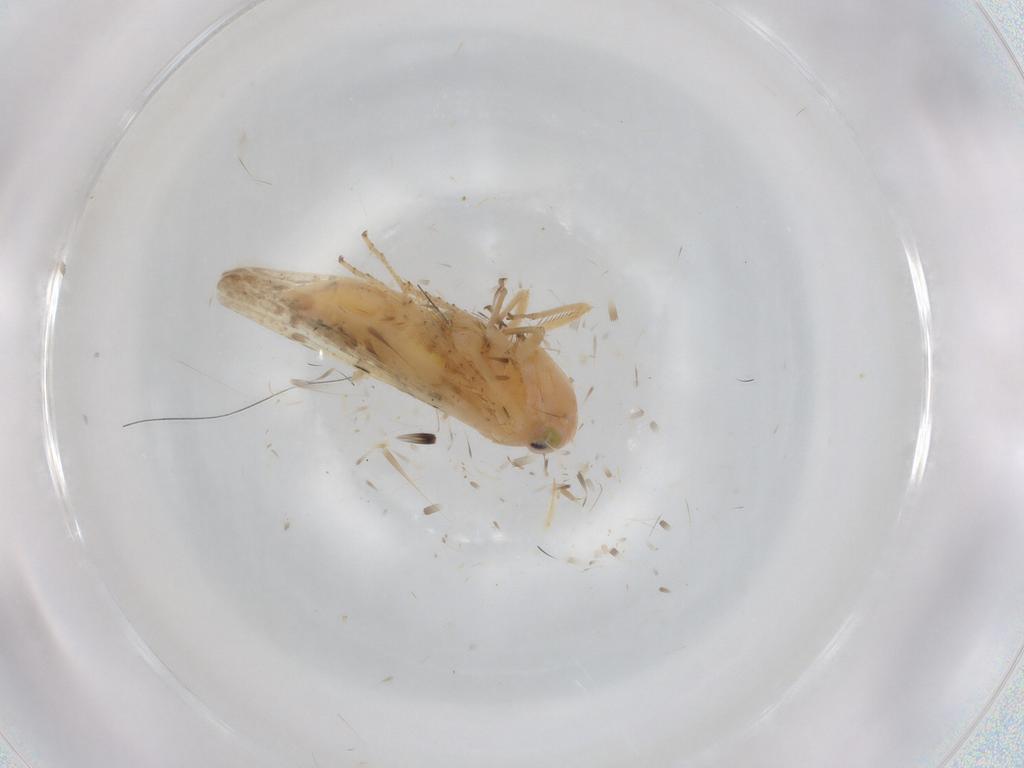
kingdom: Animalia
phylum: Arthropoda
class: Insecta
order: Hemiptera
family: Cicadellidae
